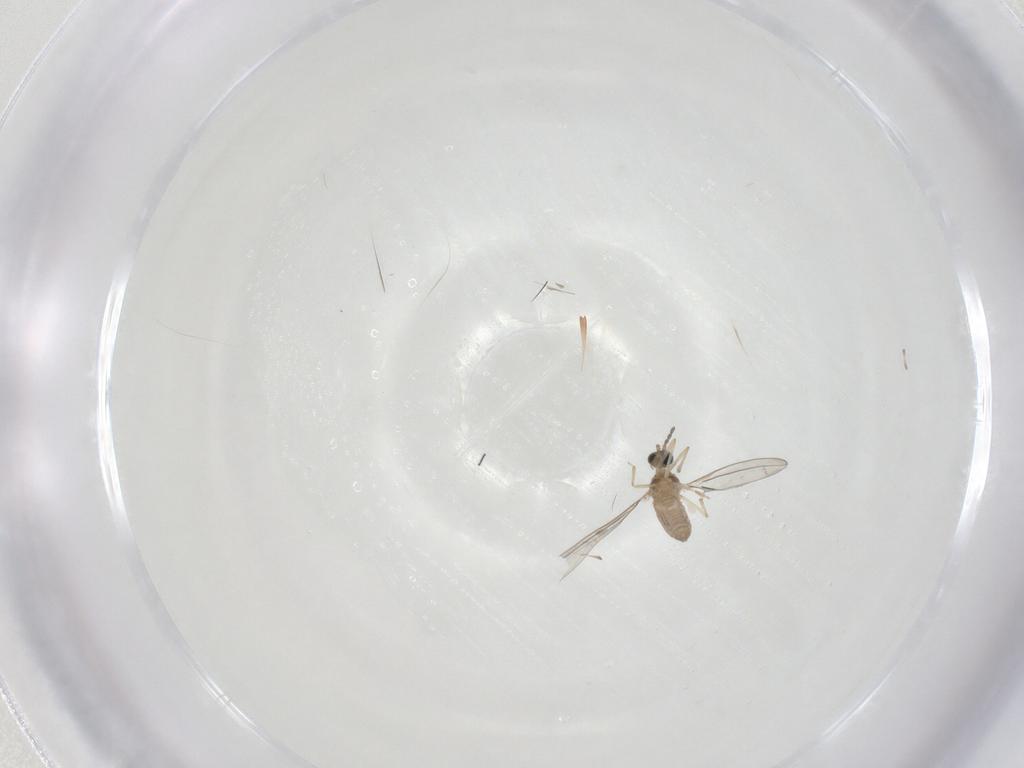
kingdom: Animalia
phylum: Arthropoda
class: Insecta
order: Diptera
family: Cecidomyiidae
